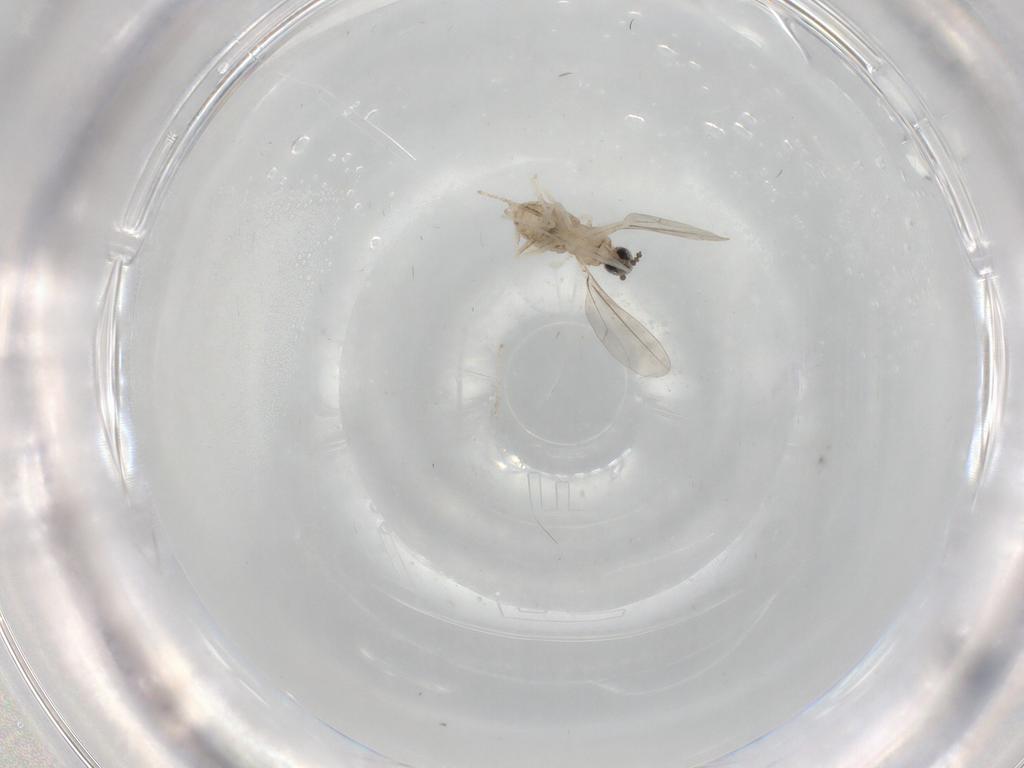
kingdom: Animalia
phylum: Arthropoda
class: Insecta
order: Diptera
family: Cecidomyiidae
